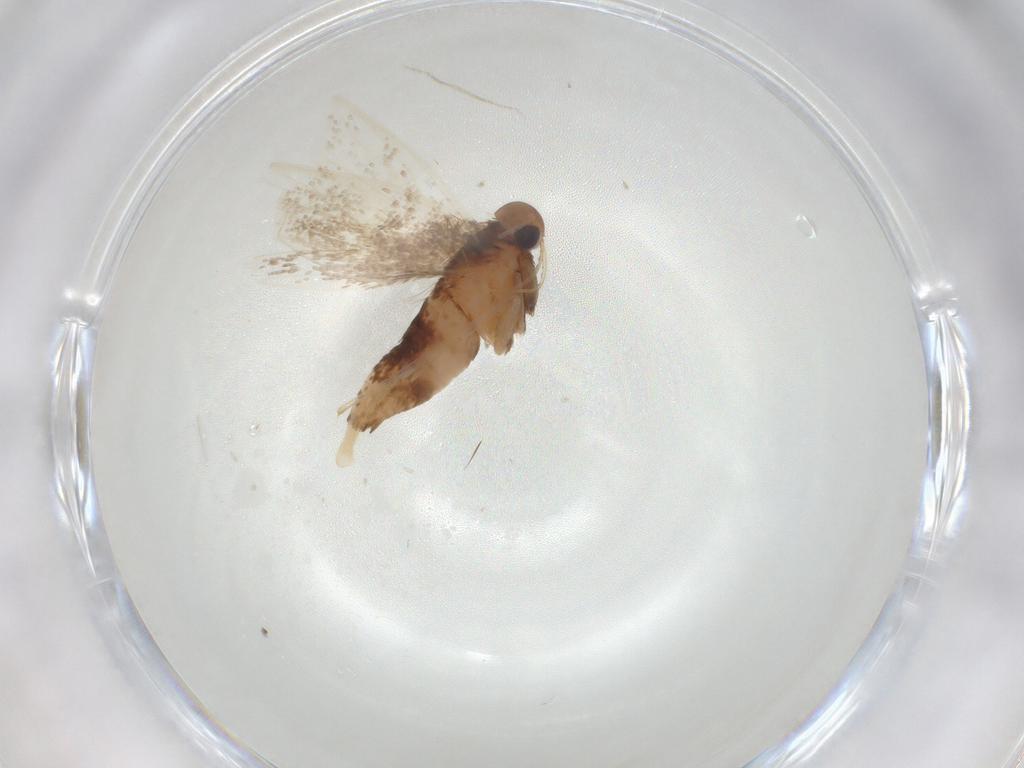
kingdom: Animalia
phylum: Arthropoda
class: Insecta
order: Lepidoptera
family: Oecophoridae
